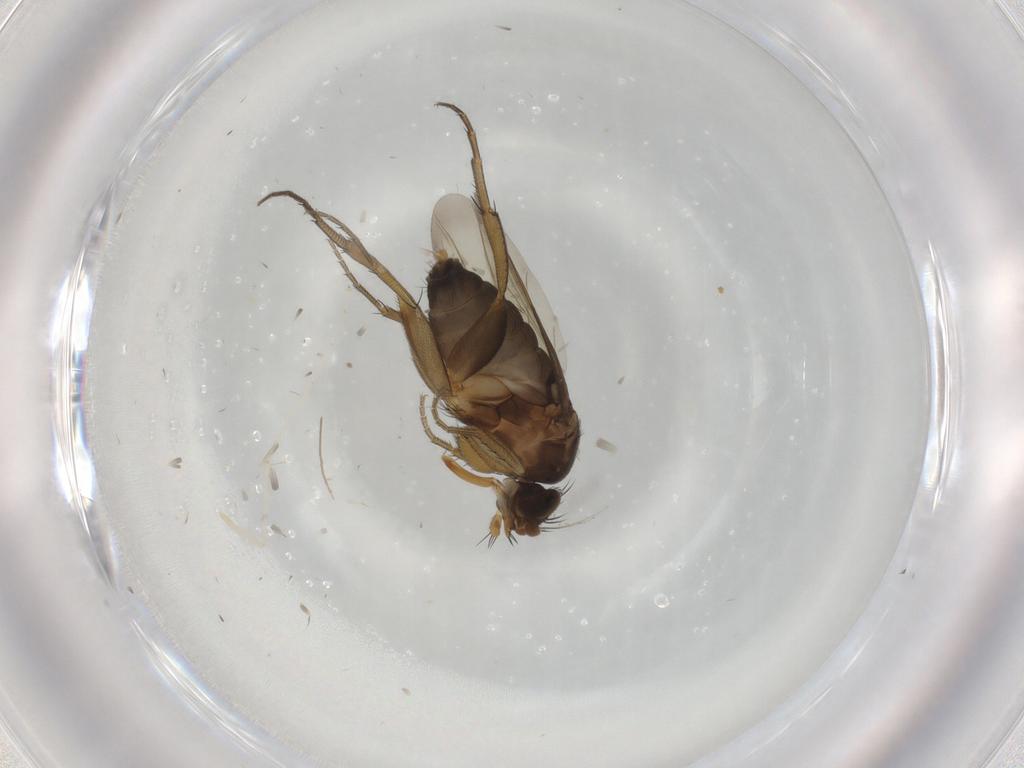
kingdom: Animalia
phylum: Arthropoda
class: Insecta
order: Diptera
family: Phoridae
